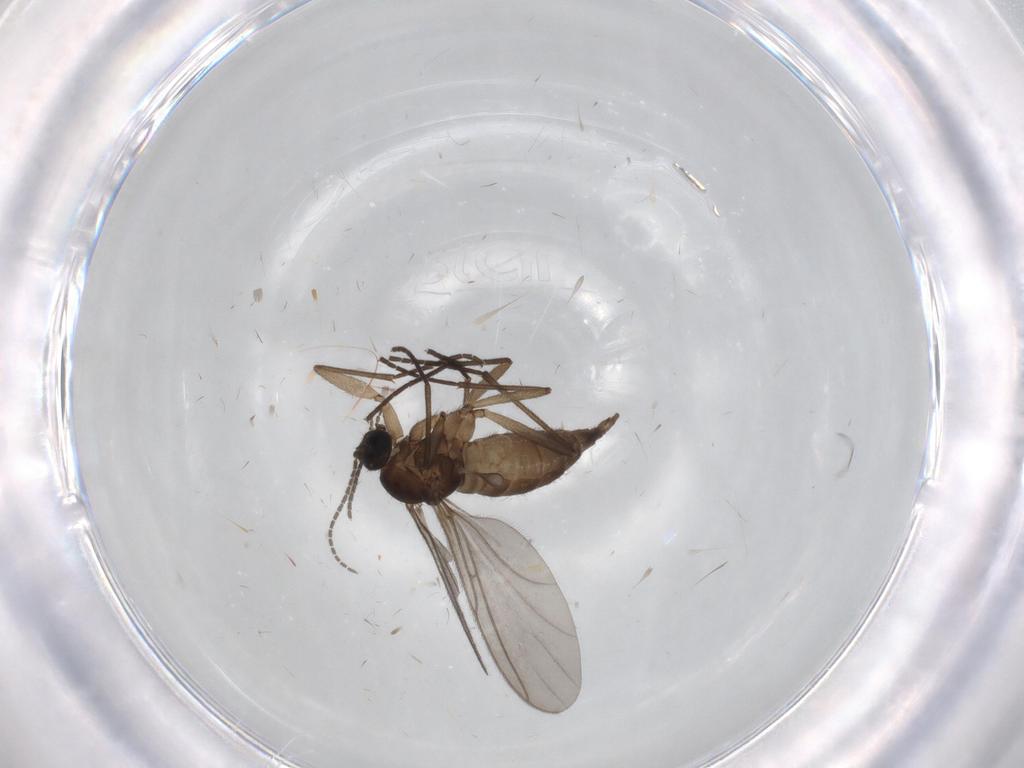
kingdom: Animalia
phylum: Arthropoda
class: Insecta
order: Diptera
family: Sciaridae
